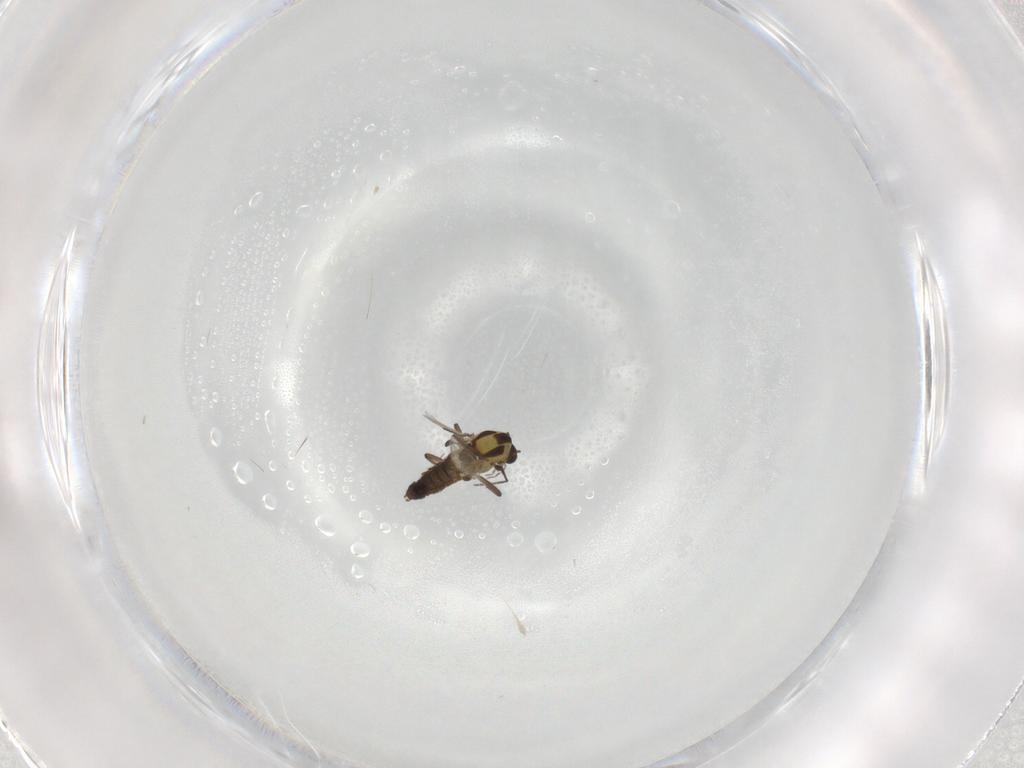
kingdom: Animalia
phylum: Arthropoda
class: Insecta
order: Diptera
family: Chironomidae
